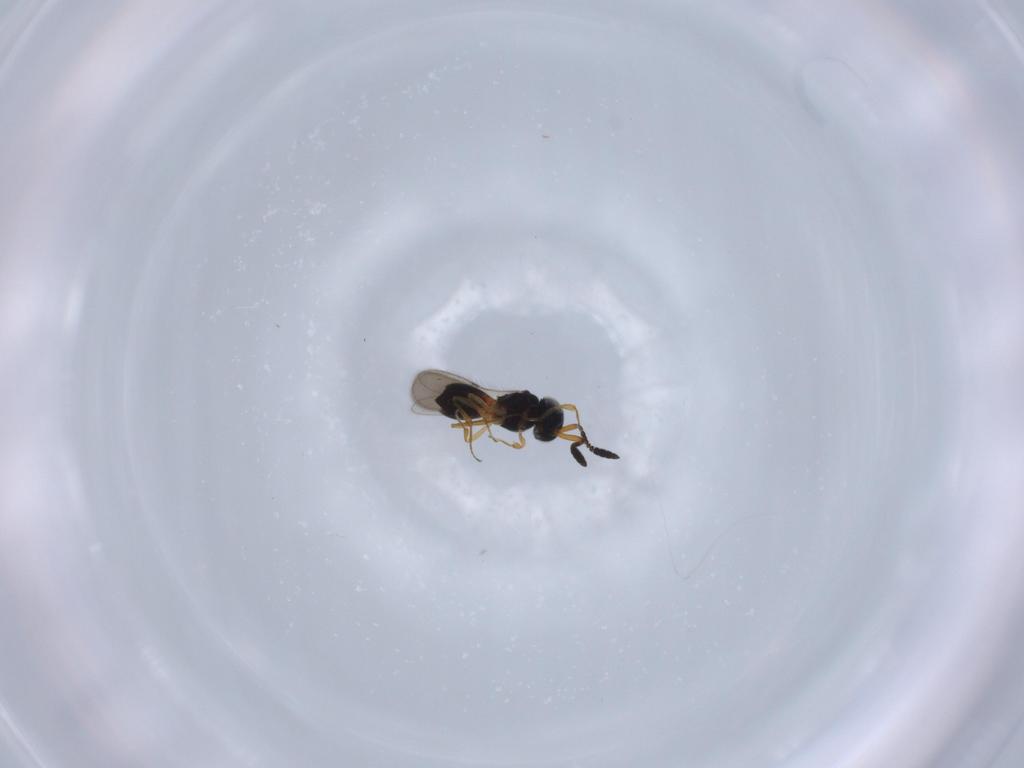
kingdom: Animalia
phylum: Arthropoda
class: Insecta
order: Hymenoptera
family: Scelionidae
